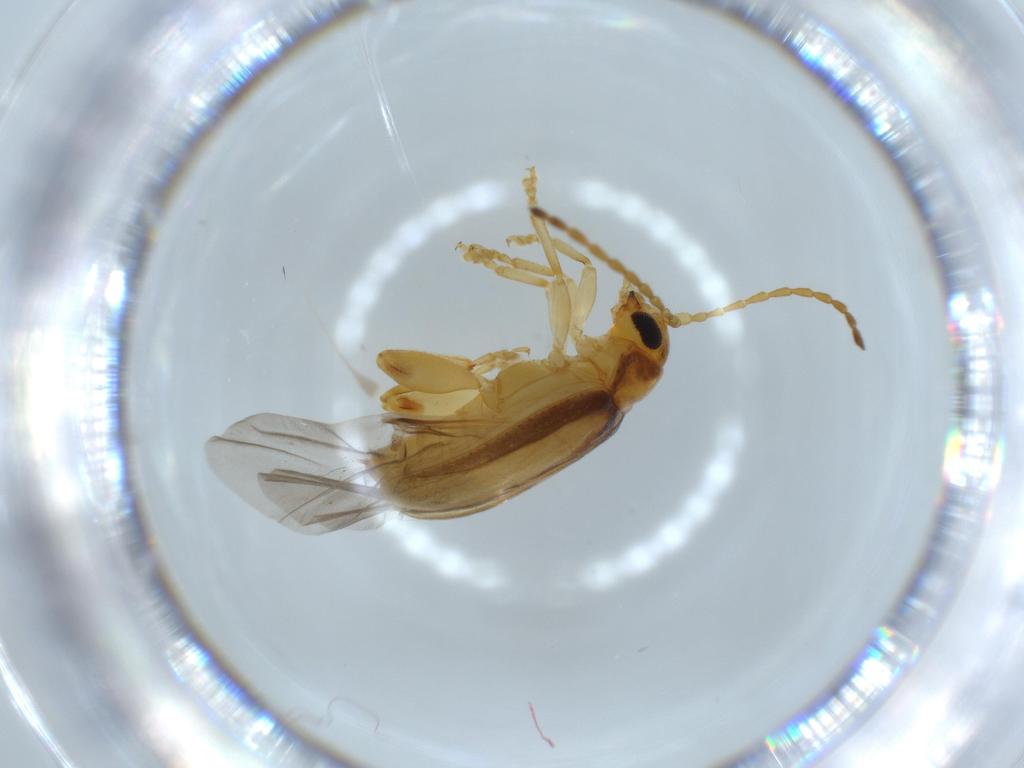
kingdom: Animalia
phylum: Arthropoda
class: Insecta
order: Coleoptera
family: Chrysomelidae
